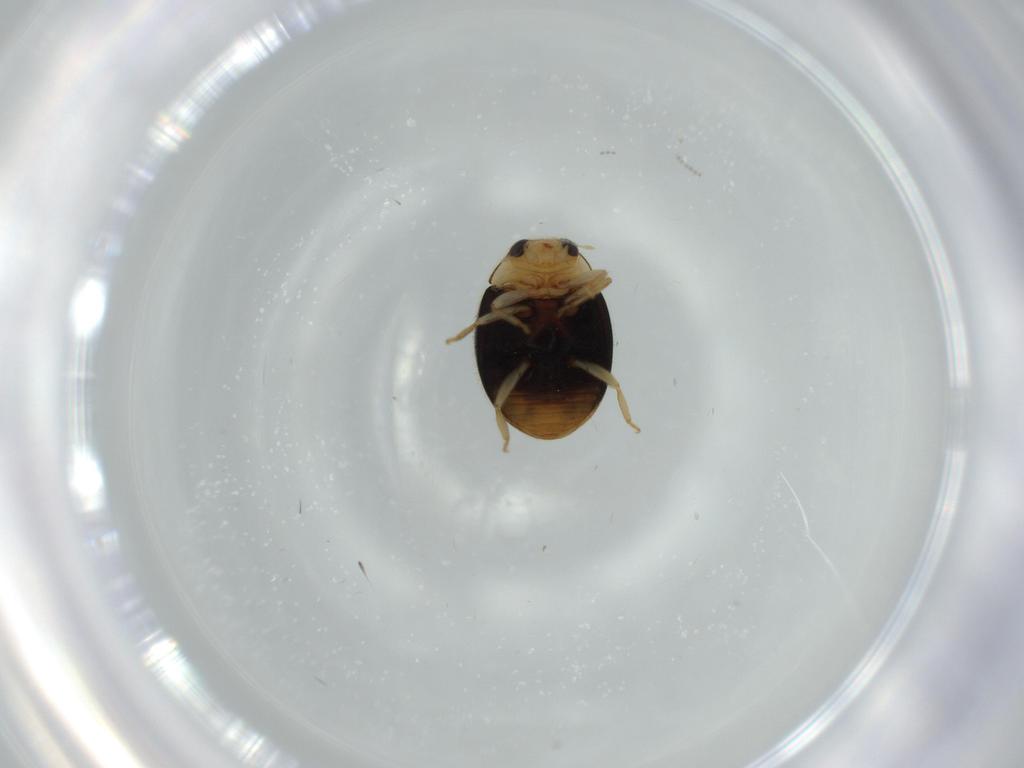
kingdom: Animalia
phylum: Arthropoda
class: Insecta
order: Coleoptera
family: Mordellidae
